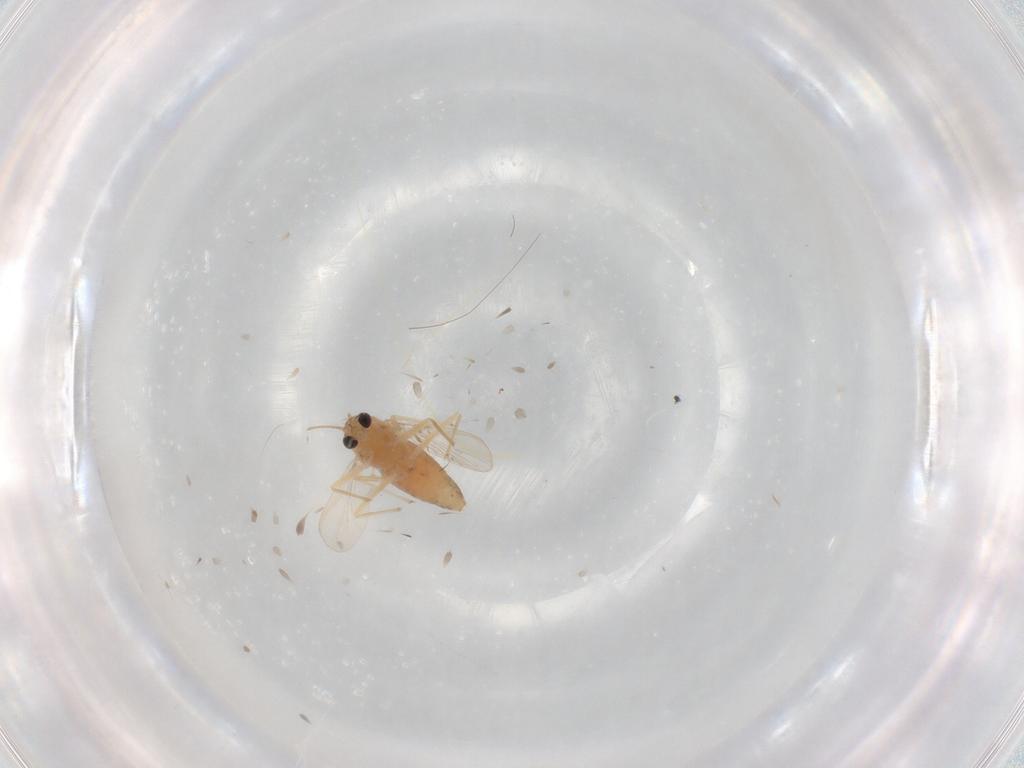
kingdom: Animalia
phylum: Arthropoda
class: Insecta
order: Diptera
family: Chironomidae
